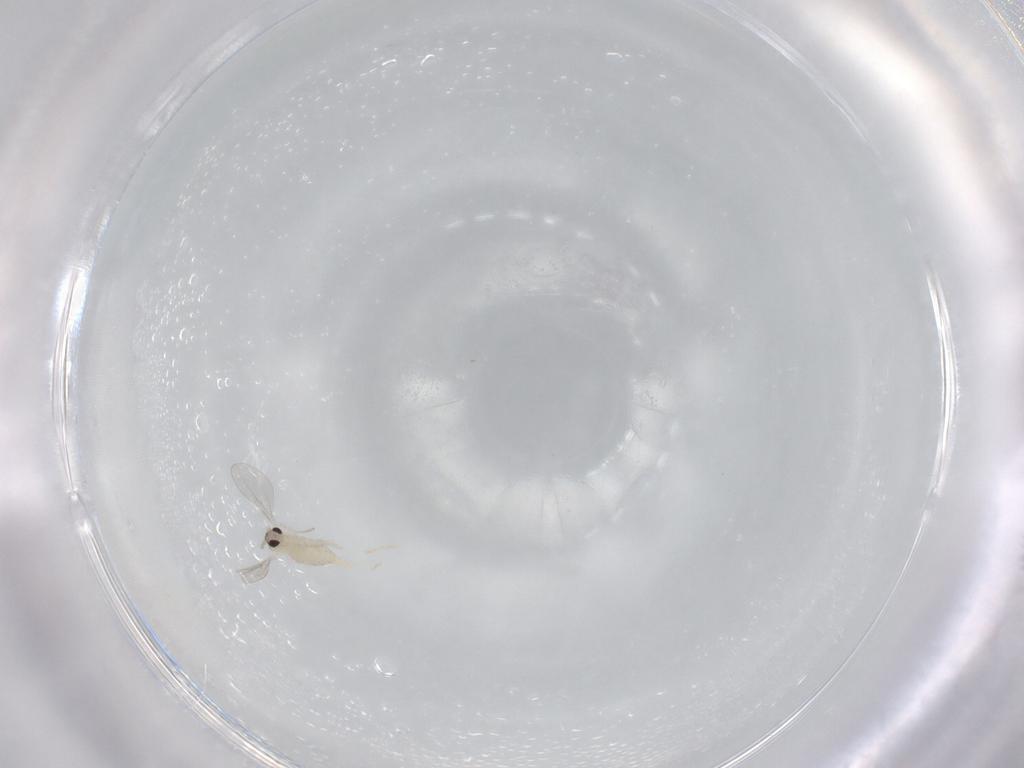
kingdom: Animalia
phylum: Arthropoda
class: Insecta
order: Diptera
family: Cecidomyiidae
